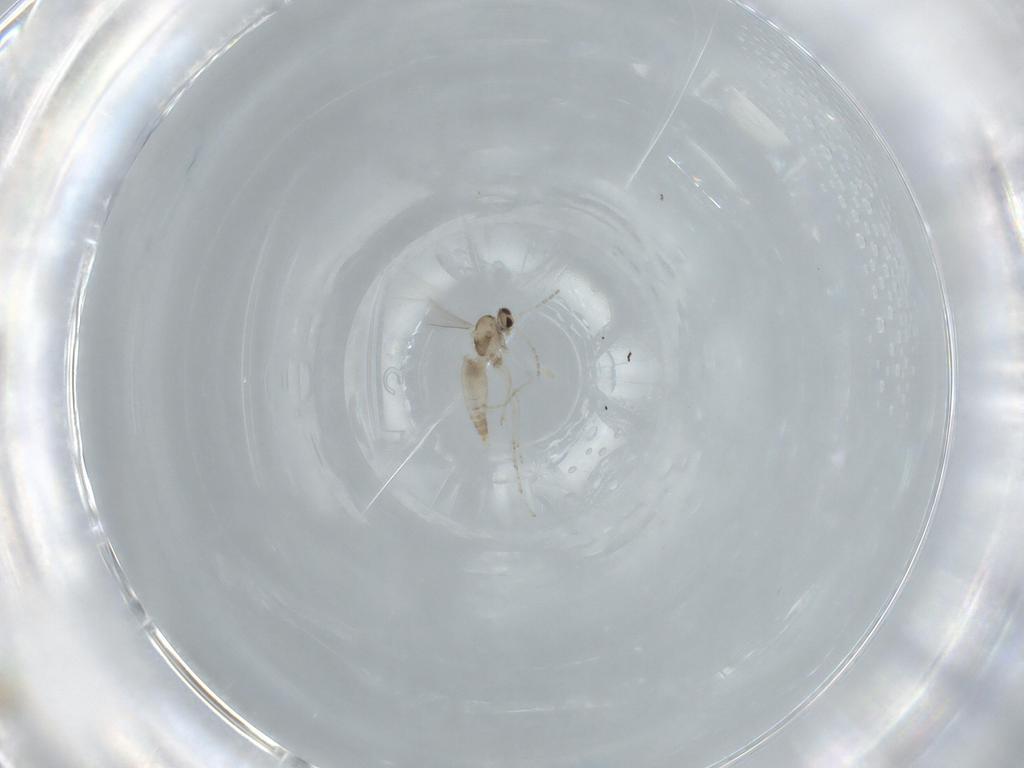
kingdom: Animalia
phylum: Arthropoda
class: Insecta
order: Diptera
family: Cecidomyiidae
